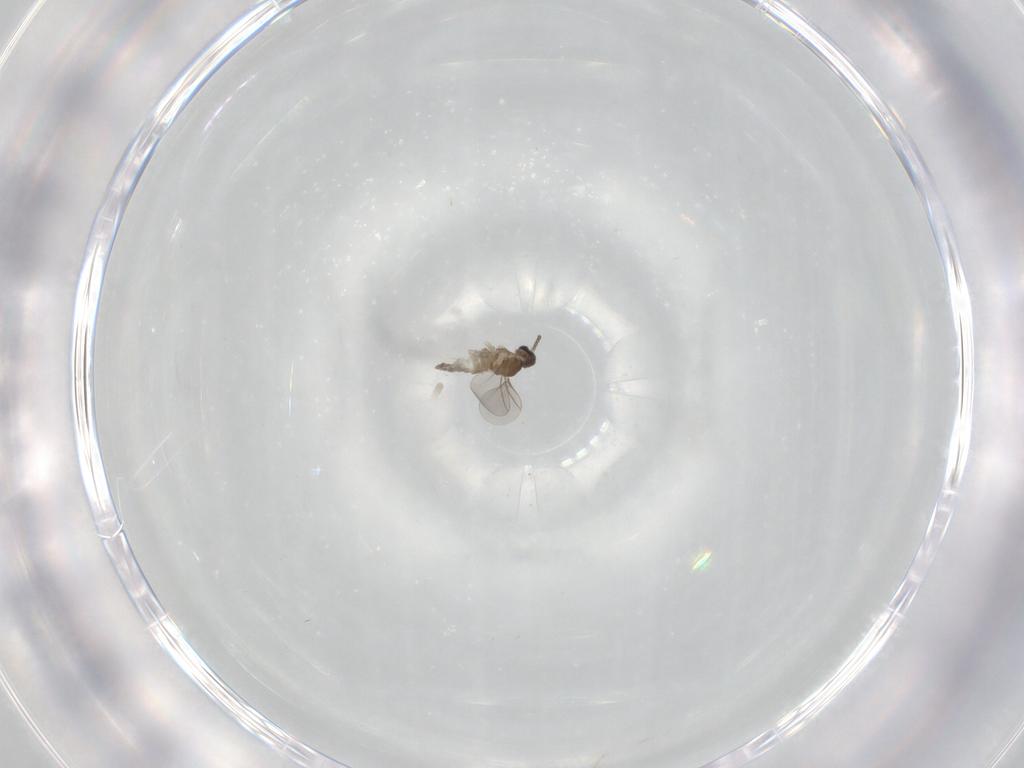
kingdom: Animalia
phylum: Arthropoda
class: Insecta
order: Diptera
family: Cecidomyiidae
